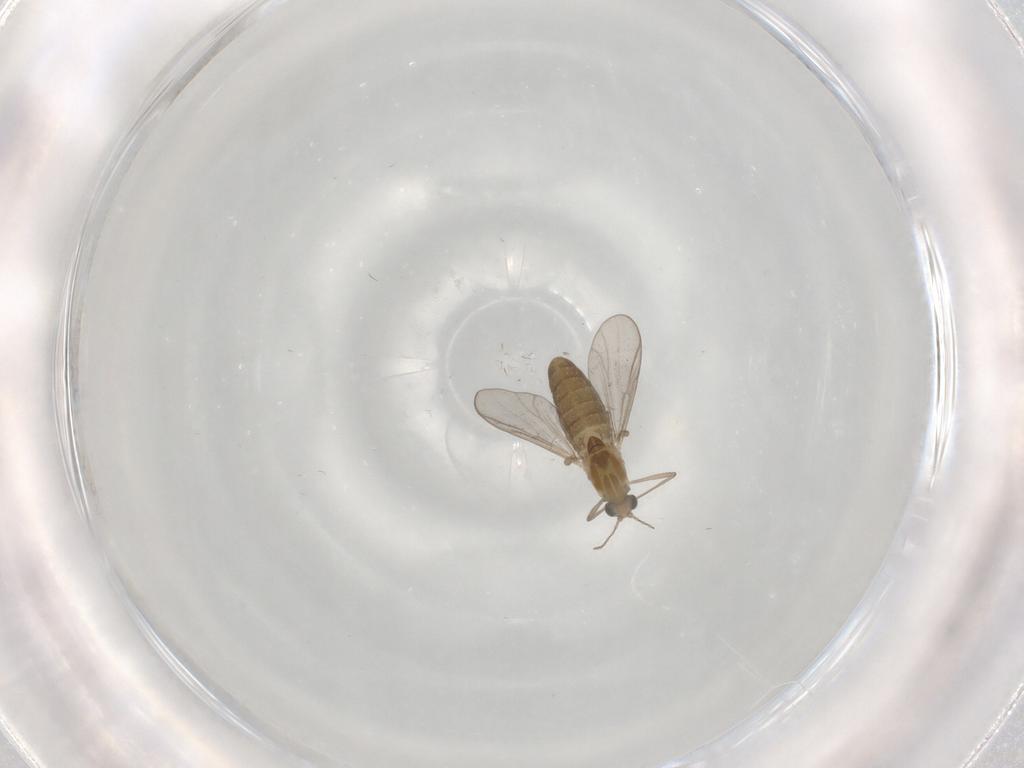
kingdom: Animalia
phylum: Arthropoda
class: Insecta
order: Diptera
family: Chironomidae
